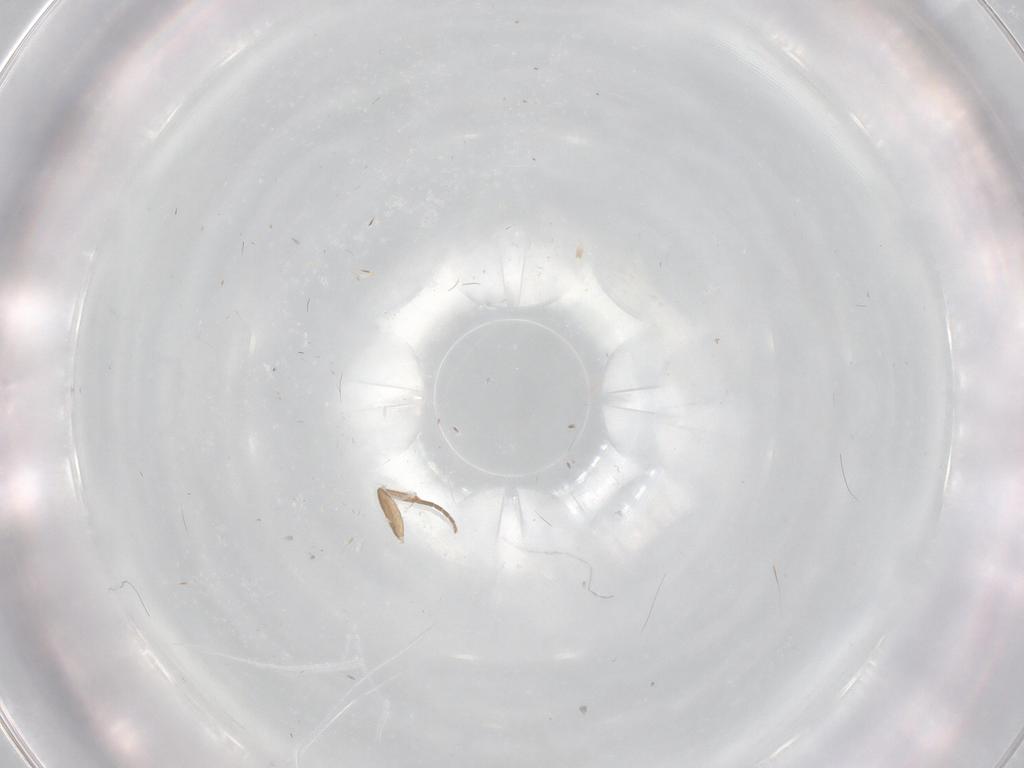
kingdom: Animalia
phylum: Arthropoda
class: Insecta
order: Diptera
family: Phoridae
